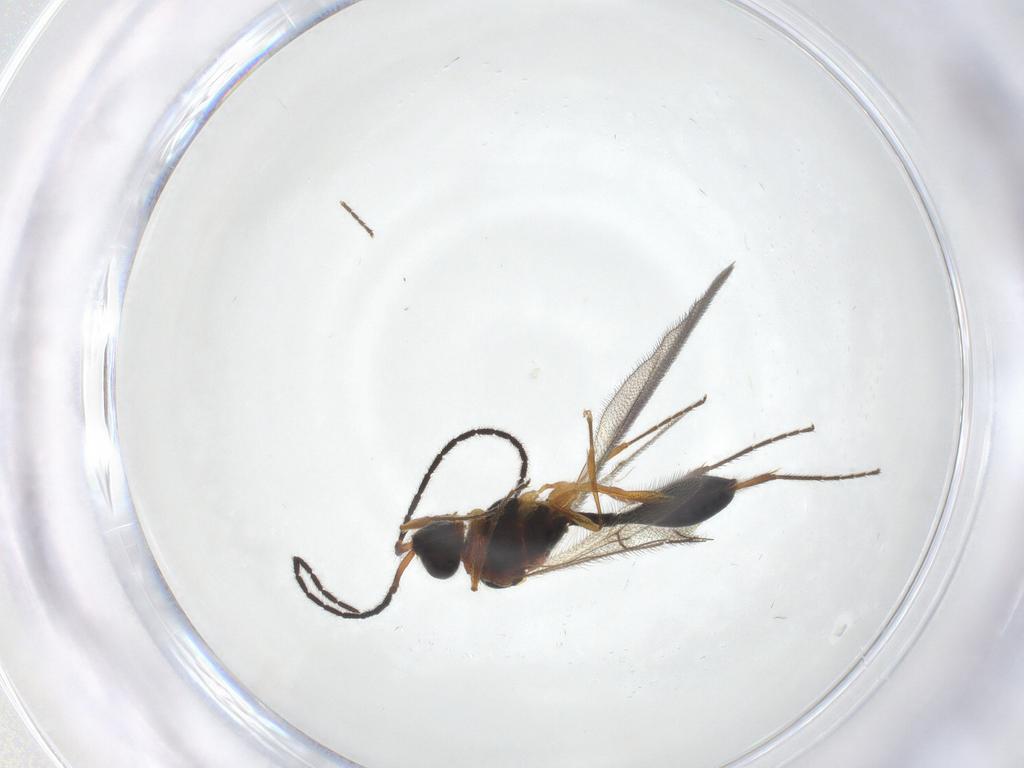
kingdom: Animalia
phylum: Arthropoda
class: Insecta
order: Hymenoptera
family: Diapriidae
